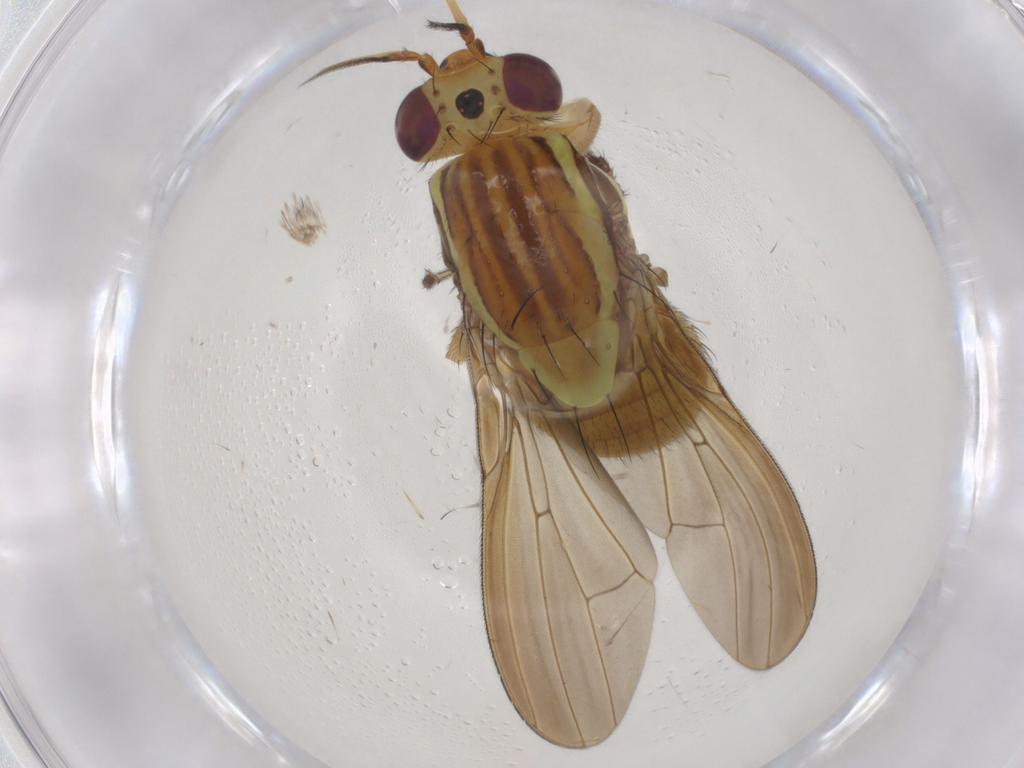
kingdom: Animalia
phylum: Arthropoda
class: Insecta
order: Diptera
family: Lauxaniidae
